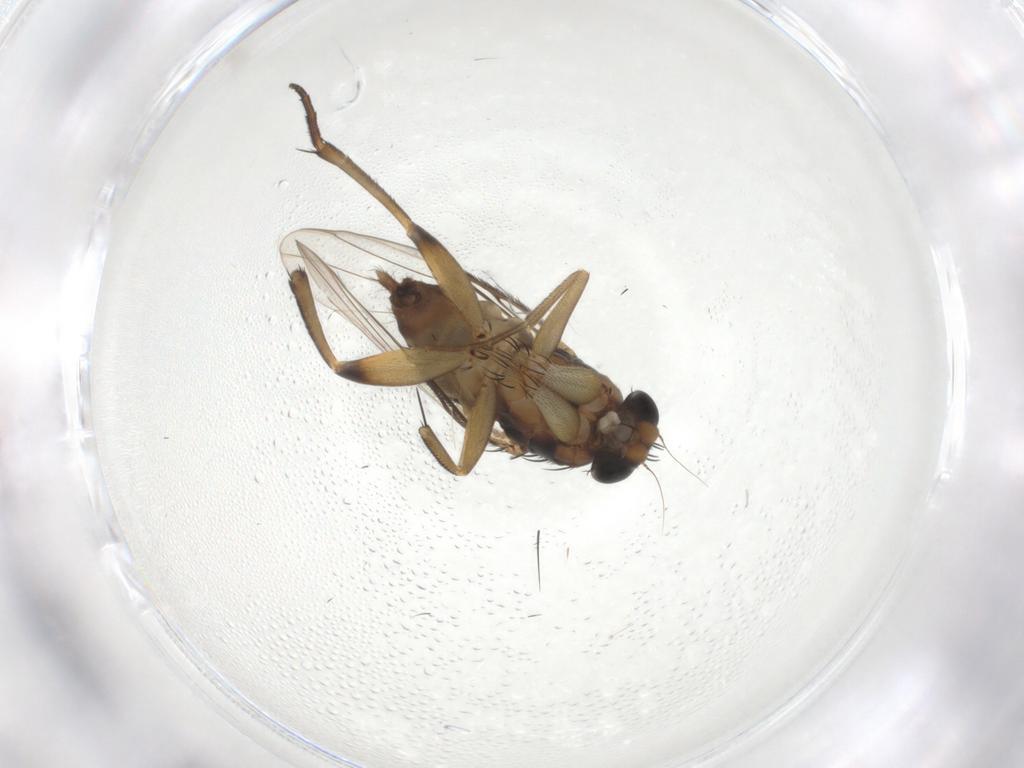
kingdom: Animalia
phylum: Arthropoda
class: Insecta
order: Diptera
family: Phoridae
